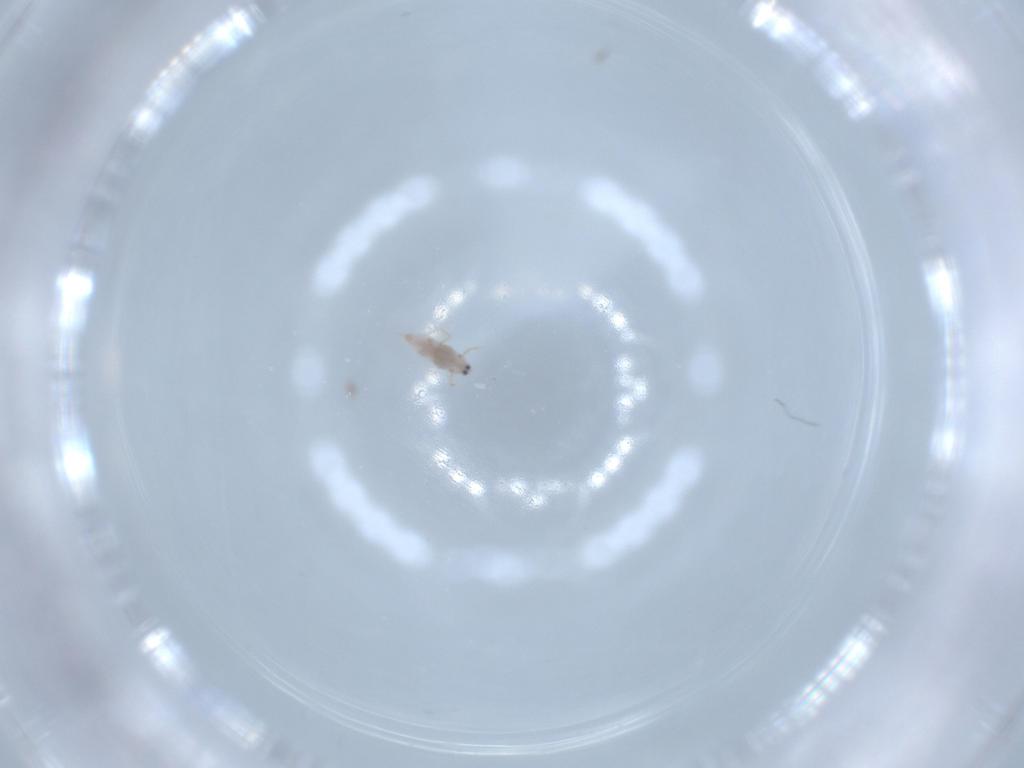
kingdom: Animalia
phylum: Arthropoda
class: Insecta
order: Hemiptera
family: Diaspididae
